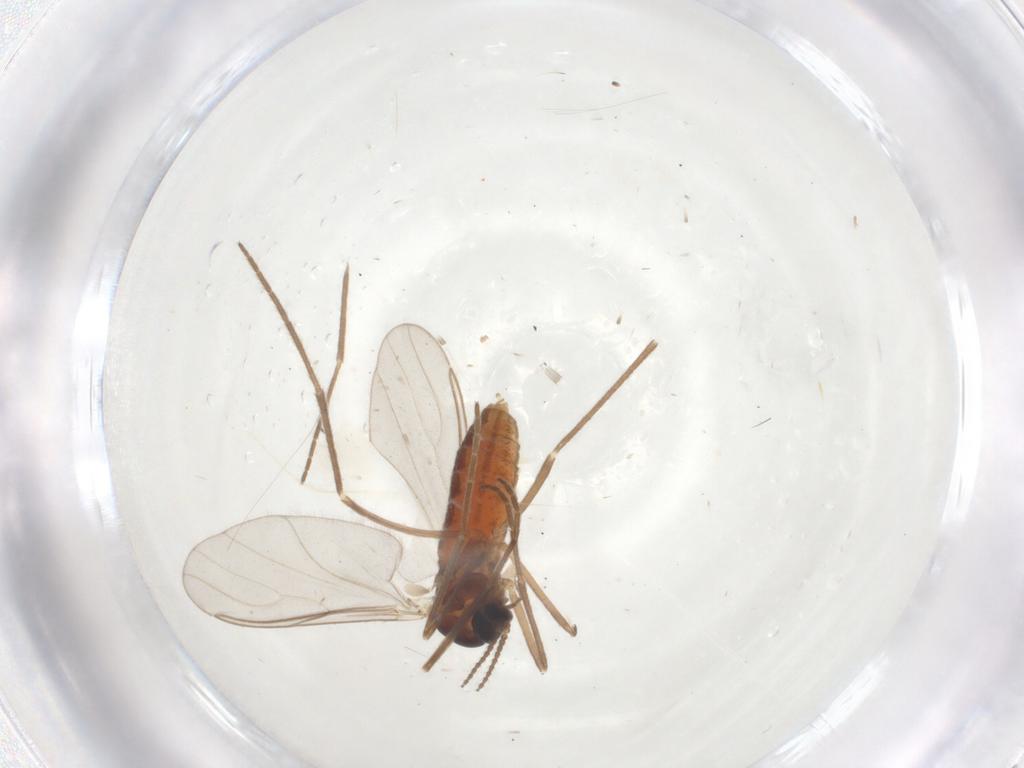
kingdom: Animalia
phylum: Arthropoda
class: Insecta
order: Diptera
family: Cecidomyiidae
